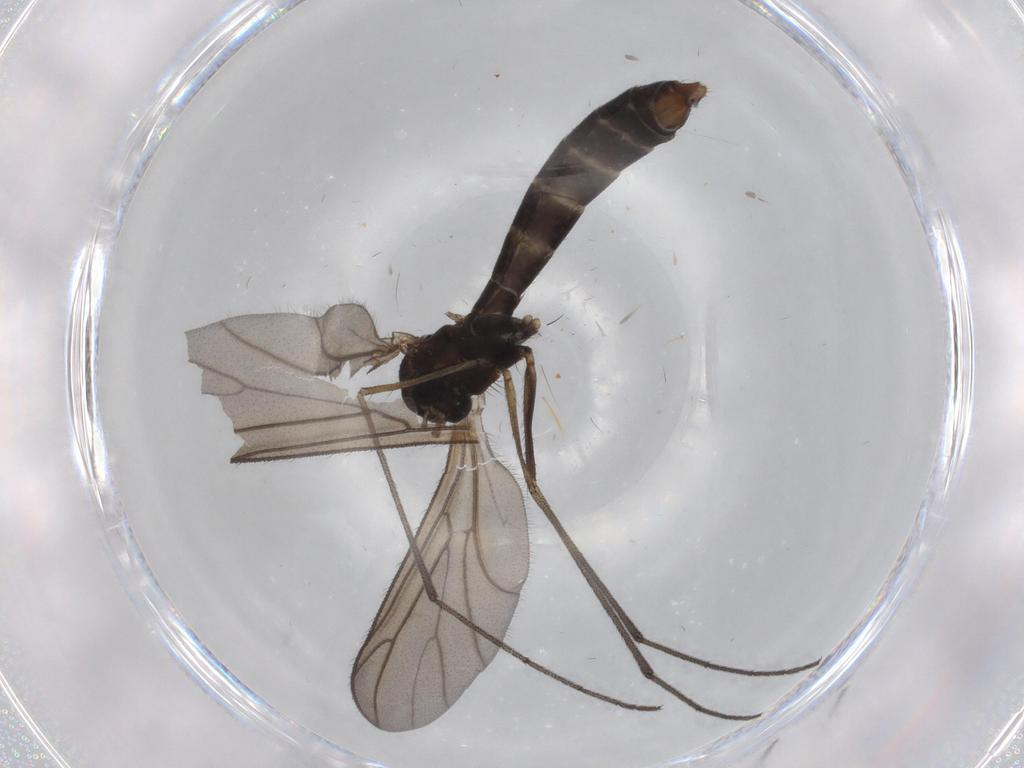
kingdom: Animalia
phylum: Arthropoda
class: Insecta
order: Diptera
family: Ditomyiidae
